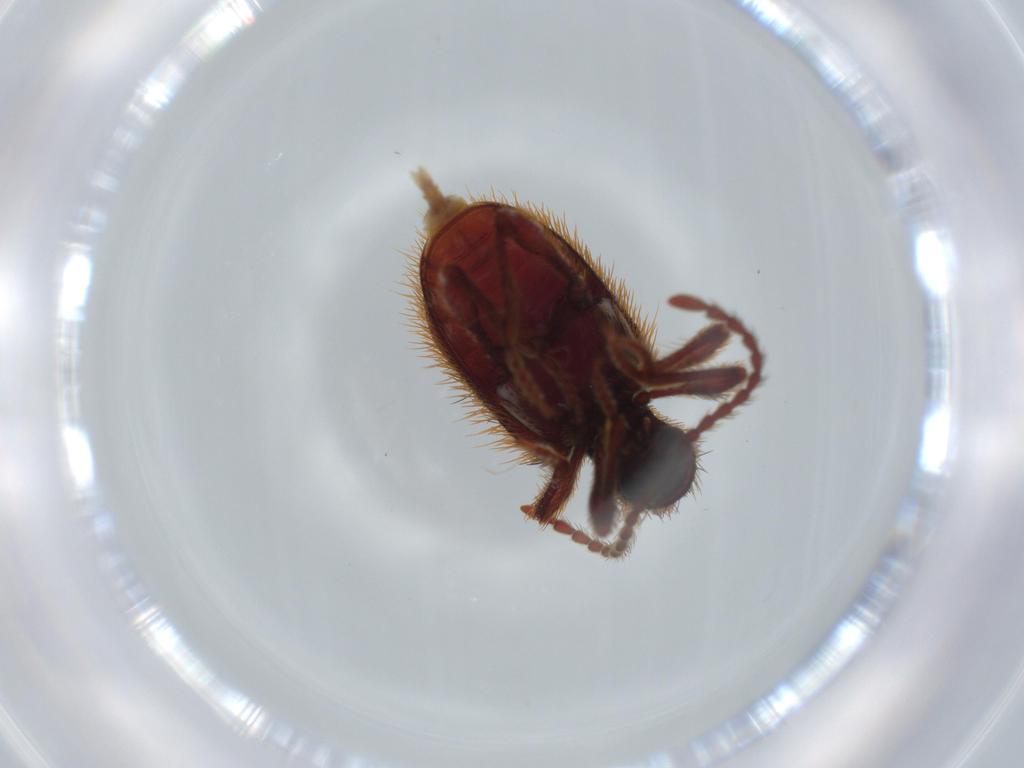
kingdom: Animalia
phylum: Arthropoda
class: Insecta
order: Coleoptera
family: Ptinidae
